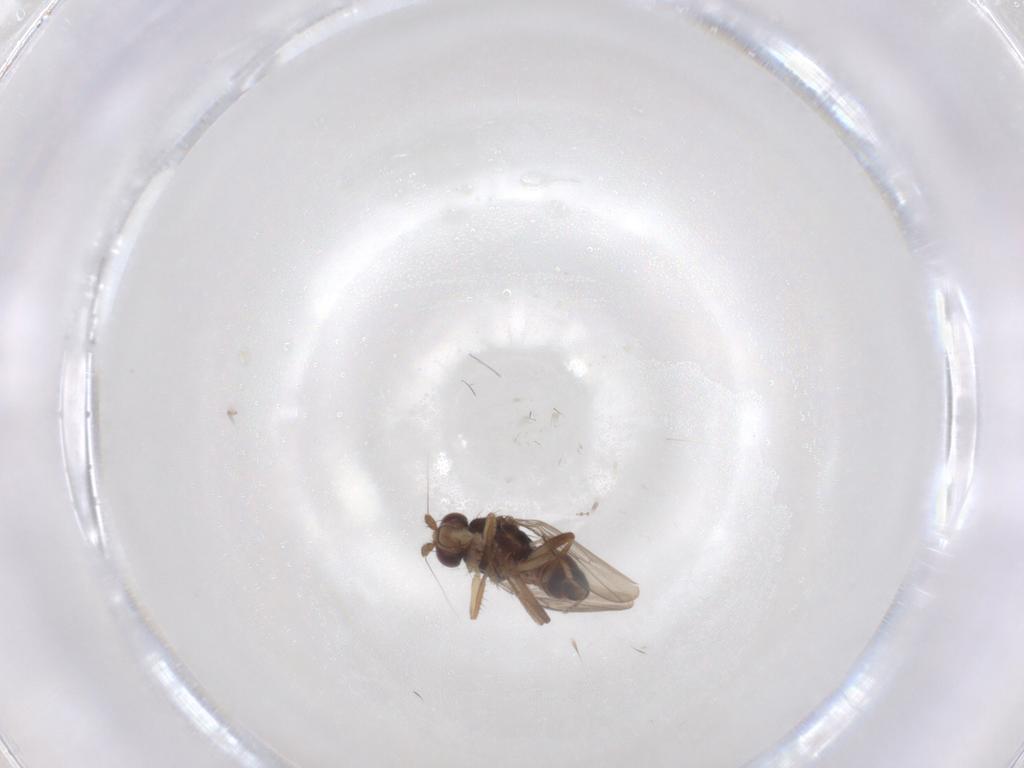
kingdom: Animalia
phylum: Arthropoda
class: Insecta
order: Diptera
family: Sphaeroceridae
